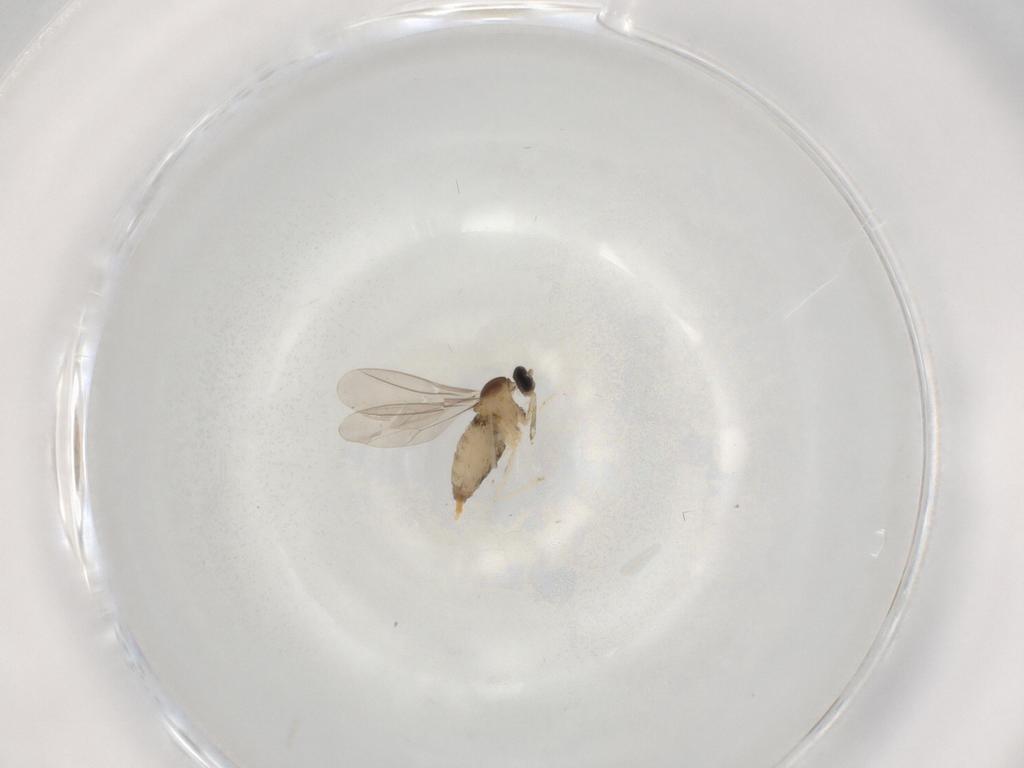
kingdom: Animalia
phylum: Arthropoda
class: Insecta
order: Diptera
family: Cecidomyiidae
